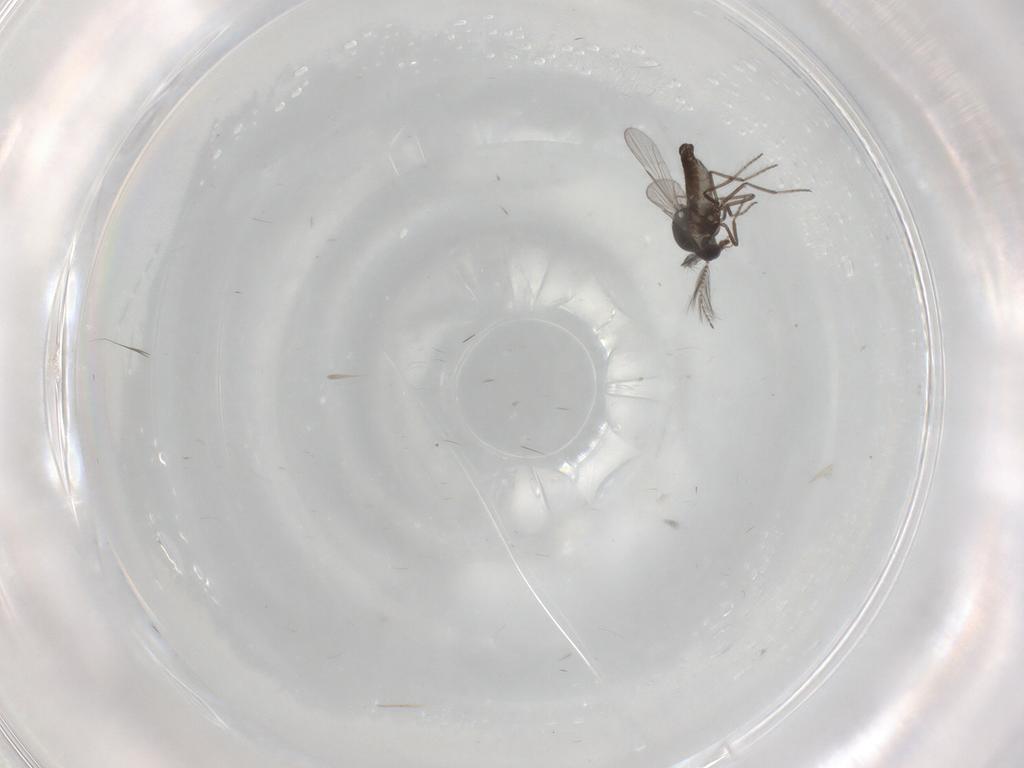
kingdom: Animalia
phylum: Arthropoda
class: Insecta
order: Diptera
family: Ceratopogonidae
